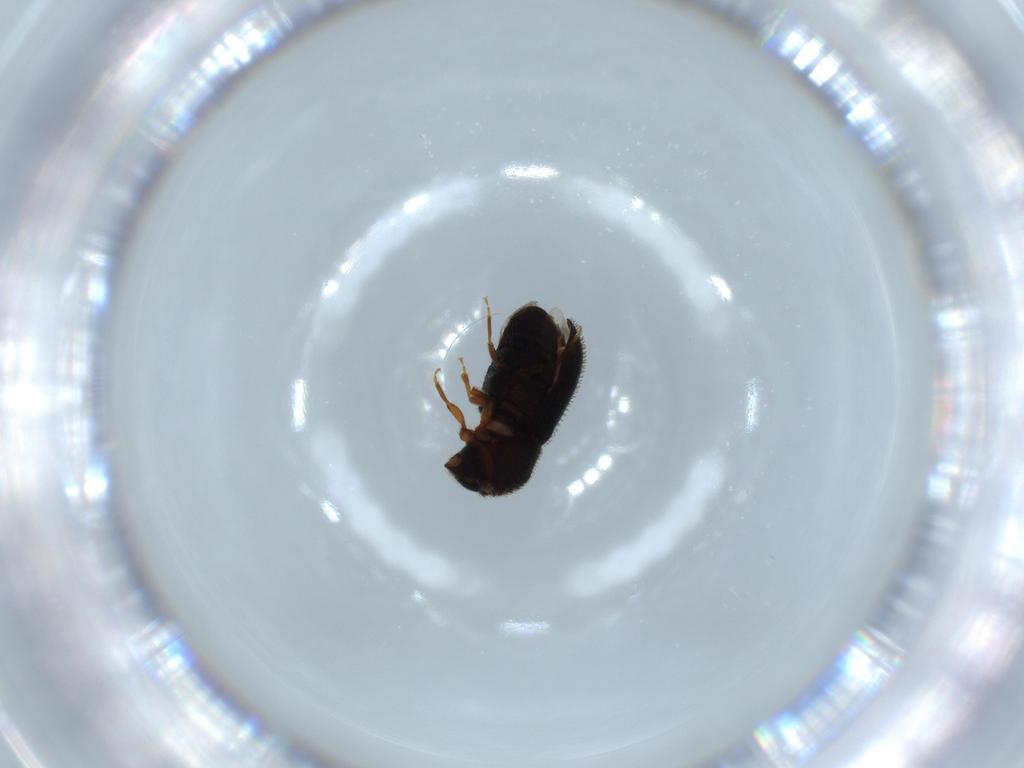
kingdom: Animalia
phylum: Arthropoda
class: Insecta
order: Coleoptera
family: Curculionidae
